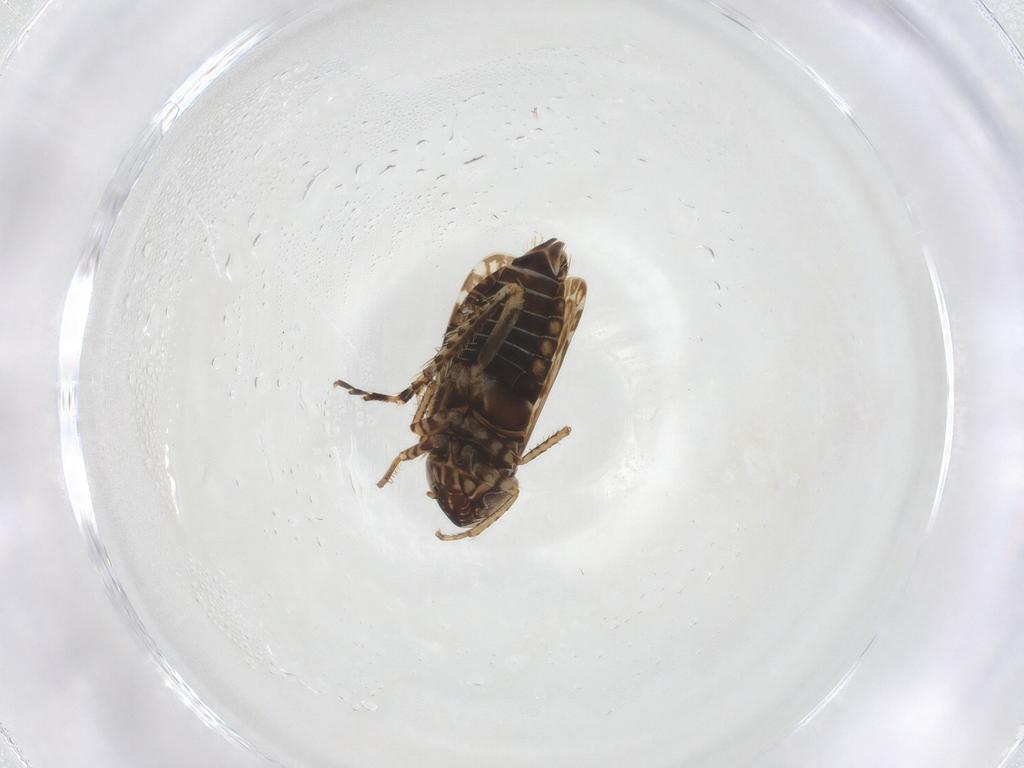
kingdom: Animalia
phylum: Arthropoda
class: Insecta
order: Hemiptera
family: Cicadellidae
